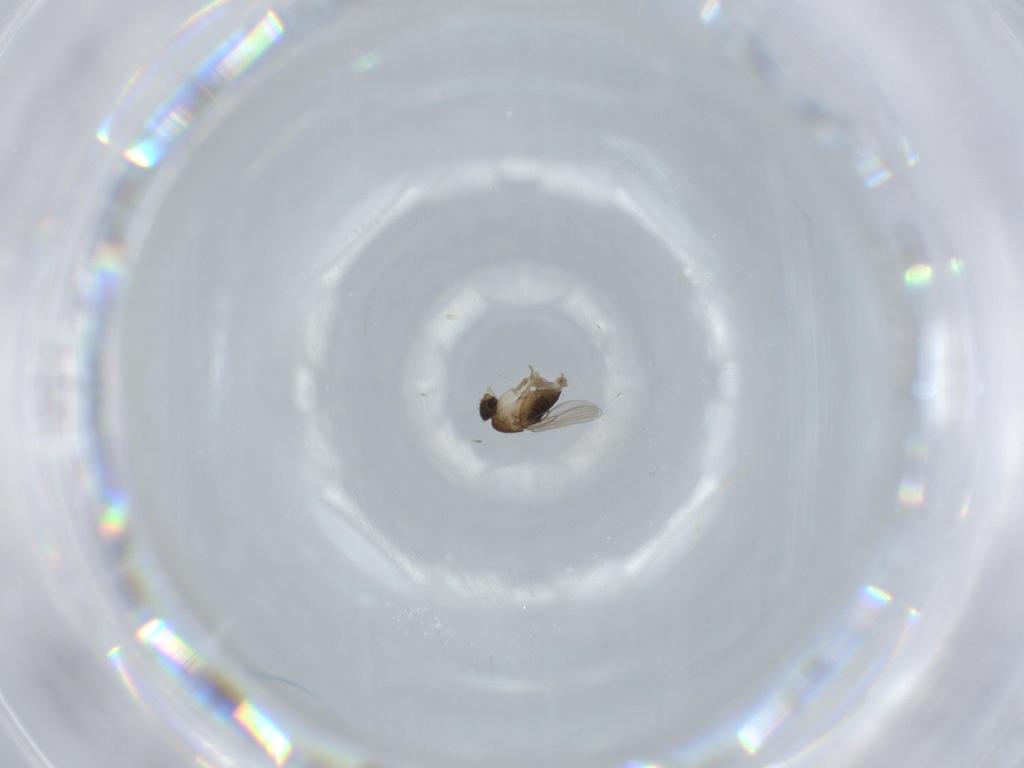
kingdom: Animalia
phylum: Arthropoda
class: Insecta
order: Diptera
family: Phoridae
